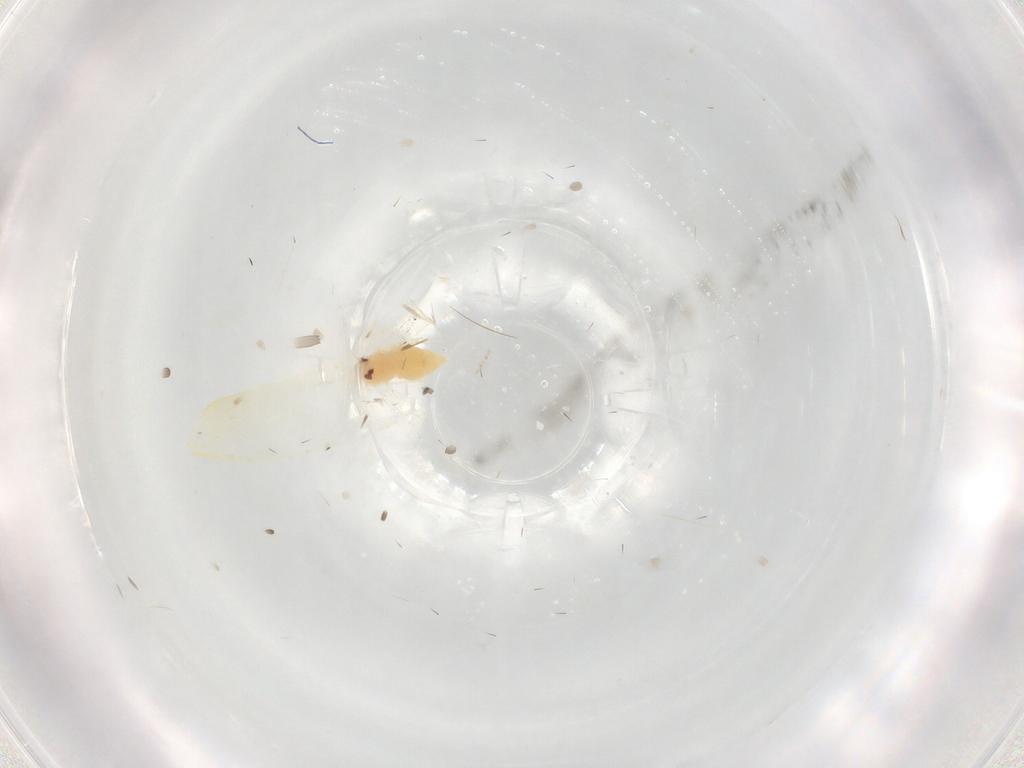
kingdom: Animalia
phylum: Arthropoda
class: Insecta
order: Hemiptera
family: Aleyrodidae
